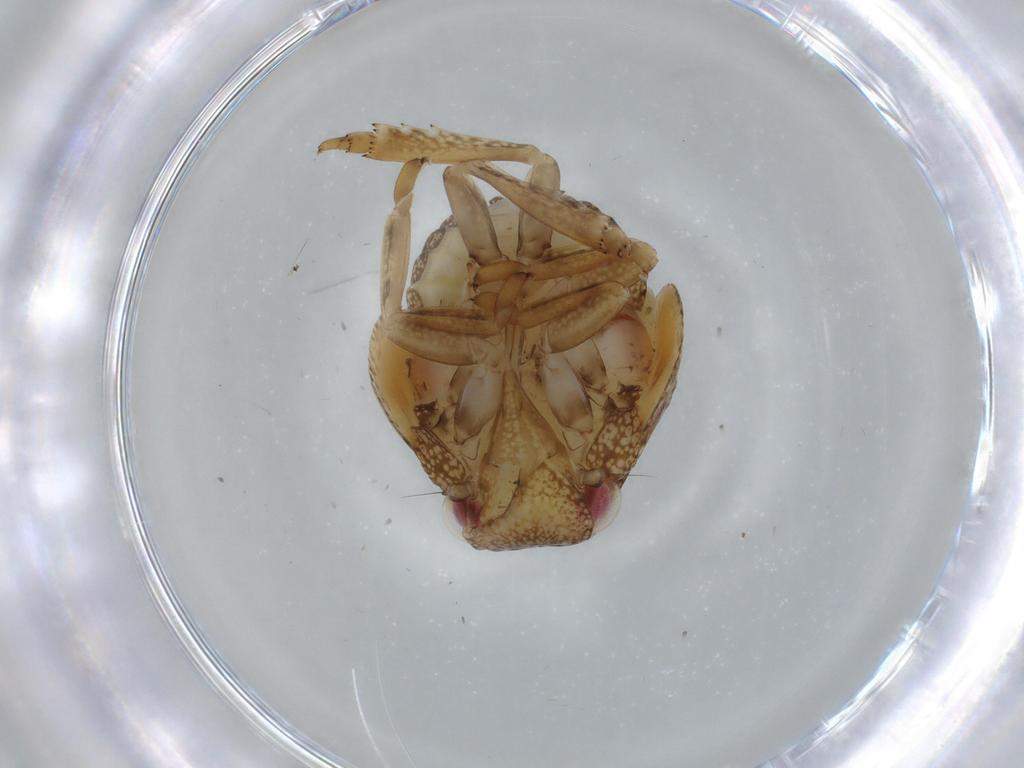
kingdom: Animalia
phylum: Arthropoda
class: Insecta
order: Hemiptera
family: Acanaloniidae
